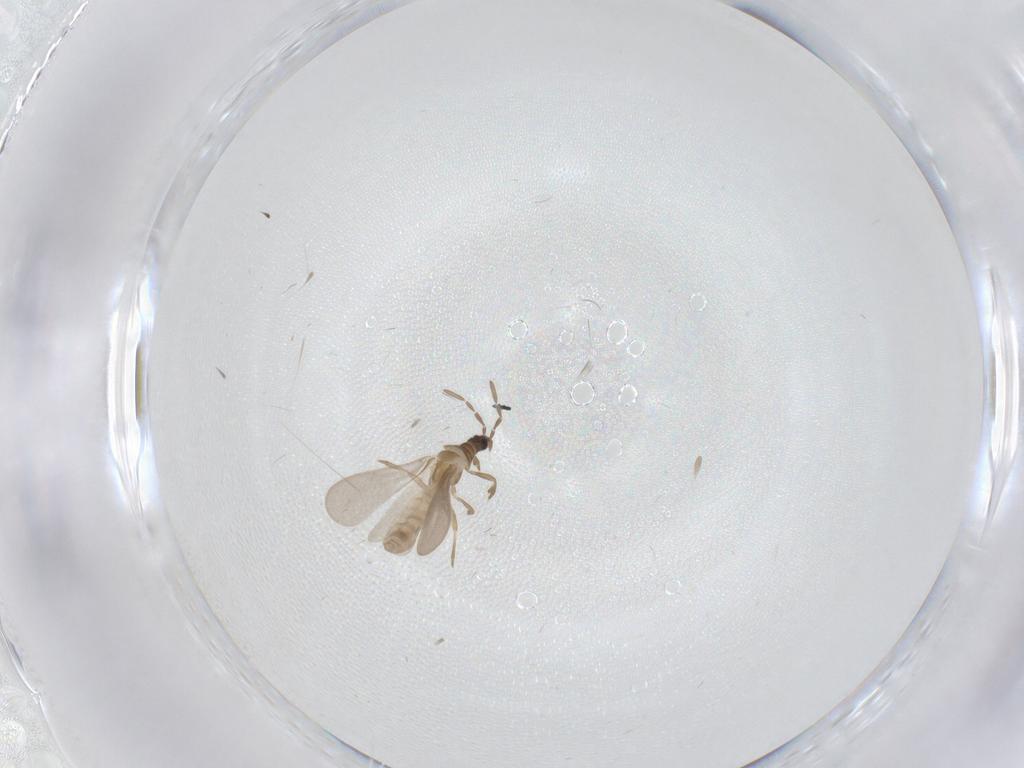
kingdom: Animalia
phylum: Arthropoda
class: Insecta
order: Hemiptera
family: Enicocephalidae
